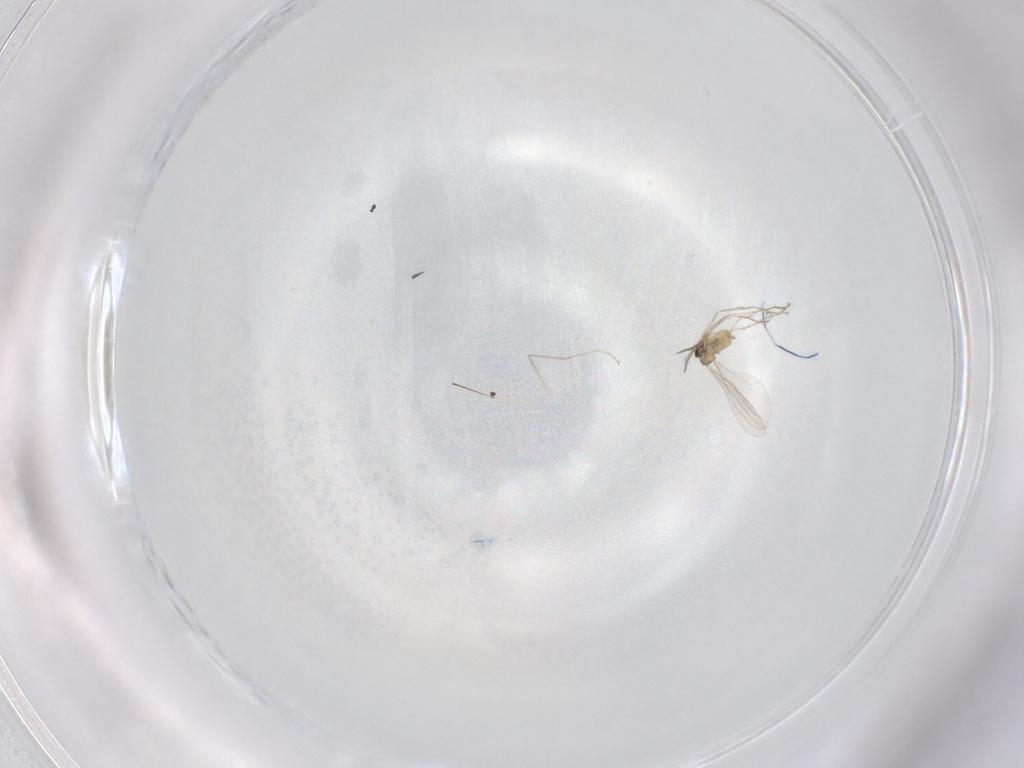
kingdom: Animalia
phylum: Arthropoda
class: Insecta
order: Diptera
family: Cecidomyiidae
